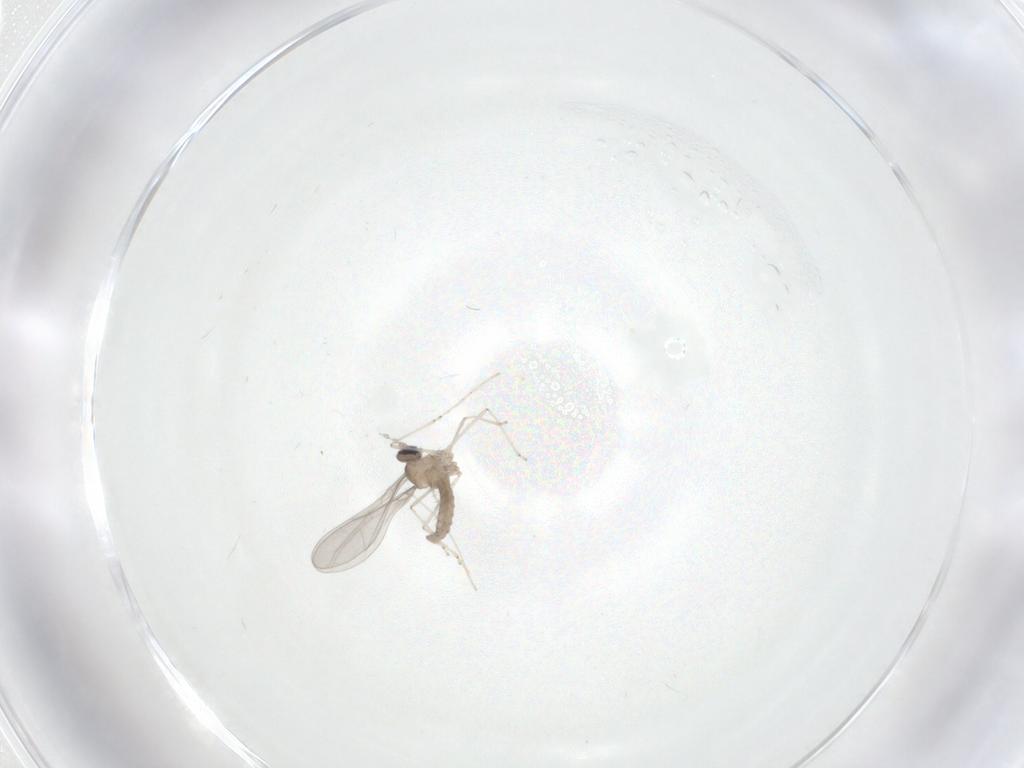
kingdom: Animalia
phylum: Arthropoda
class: Insecta
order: Diptera
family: Cecidomyiidae
